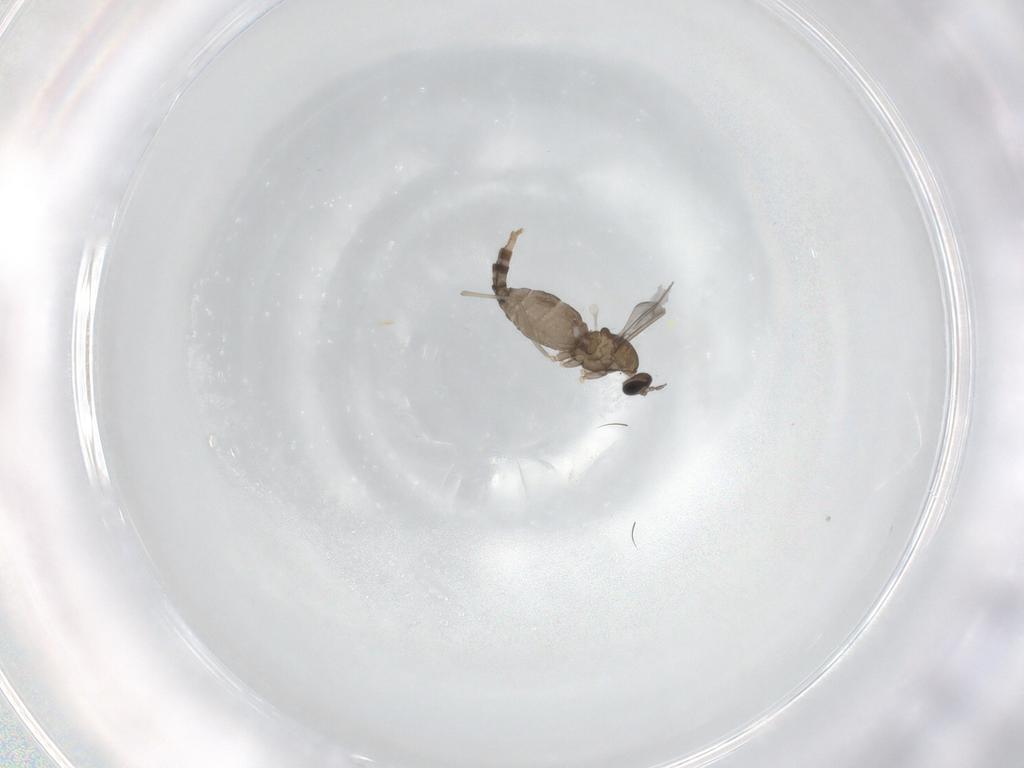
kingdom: Animalia
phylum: Arthropoda
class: Insecta
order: Diptera
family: Cecidomyiidae
